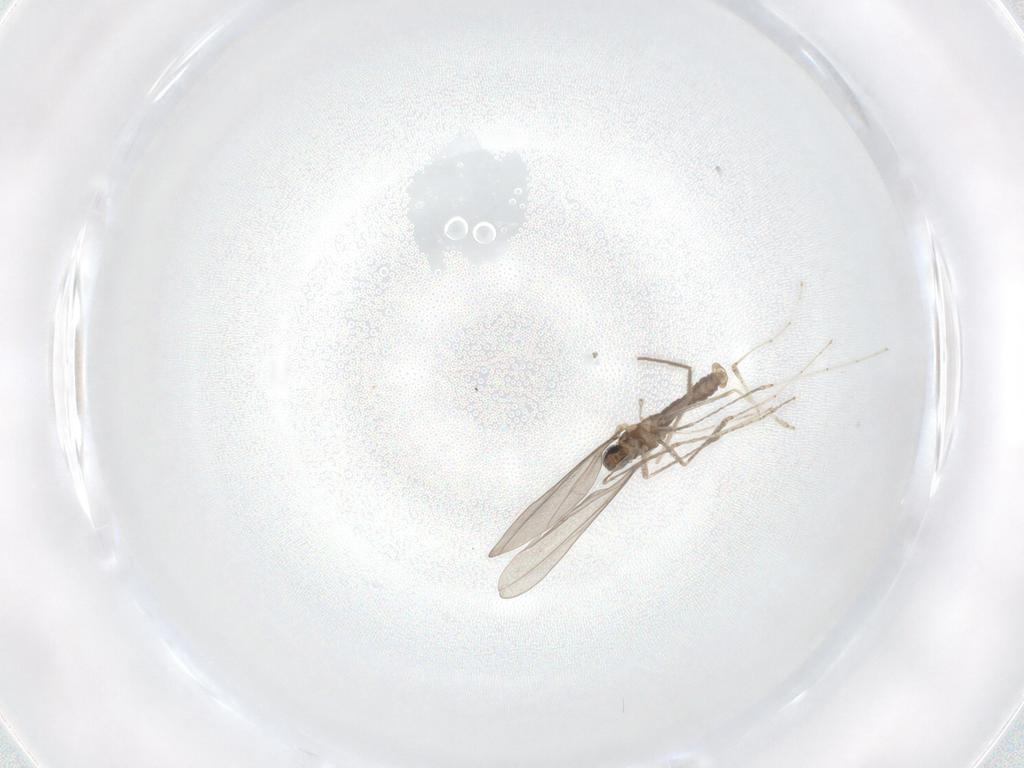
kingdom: Animalia
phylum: Arthropoda
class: Insecta
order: Diptera
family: Cecidomyiidae
